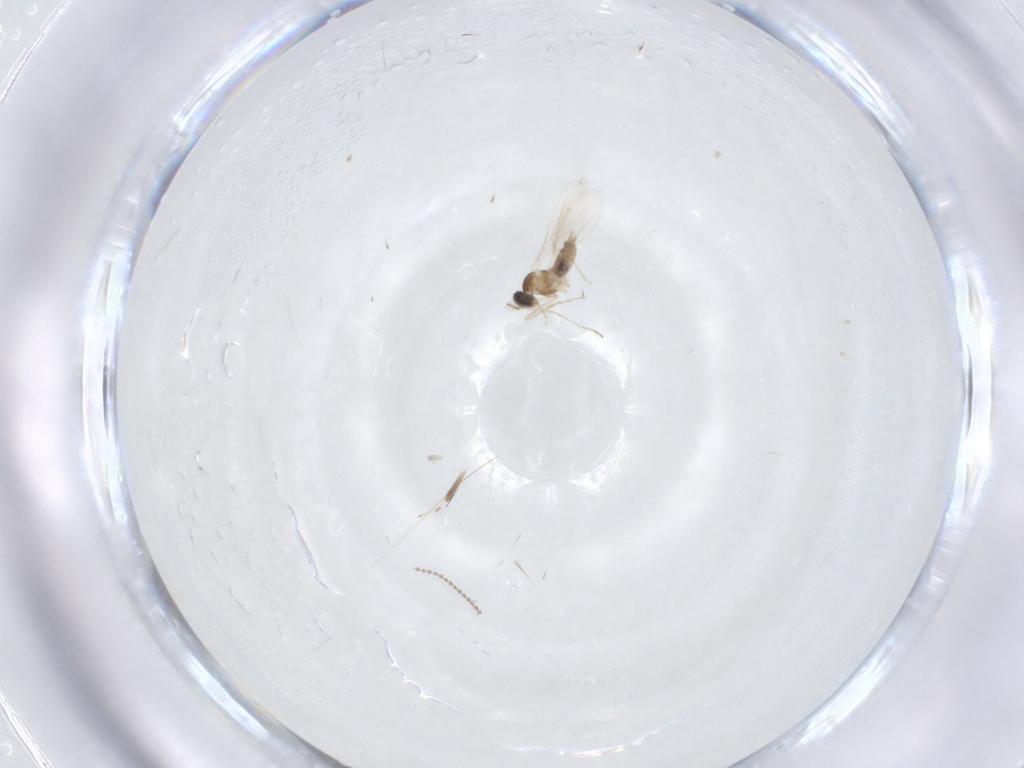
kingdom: Animalia
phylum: Arthropoda
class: Insecta
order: Diptera
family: Cecidomyiidae
